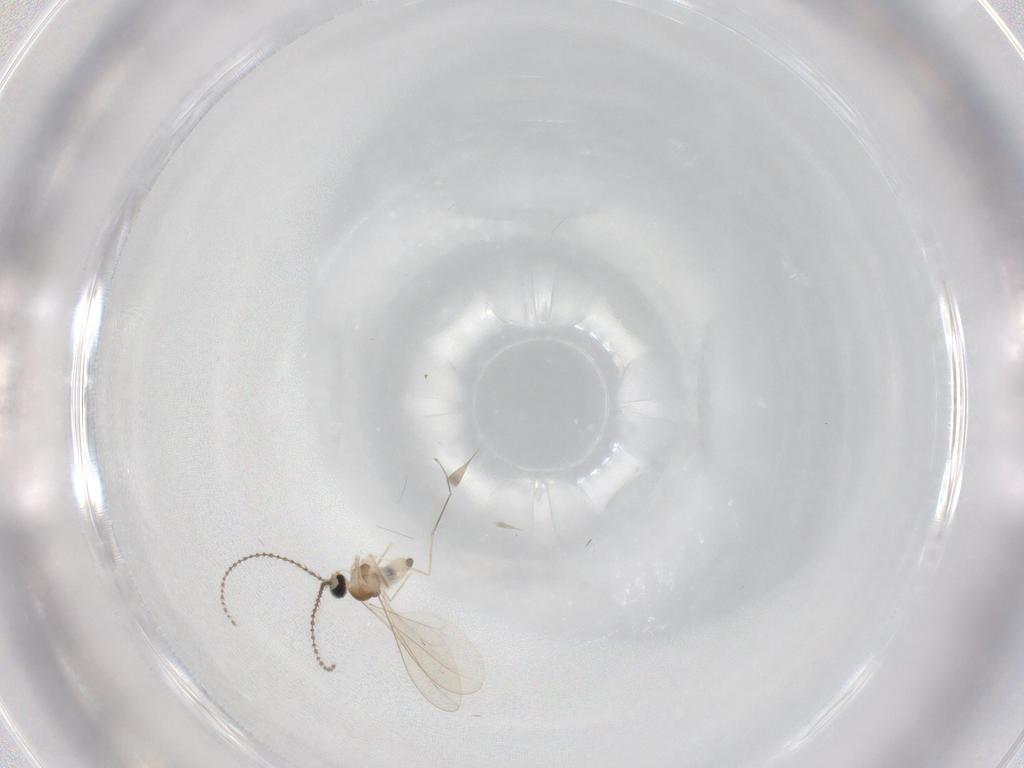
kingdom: Animalia
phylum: Arthropoda
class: Insecta
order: Diptera
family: Cecidomyiidae
